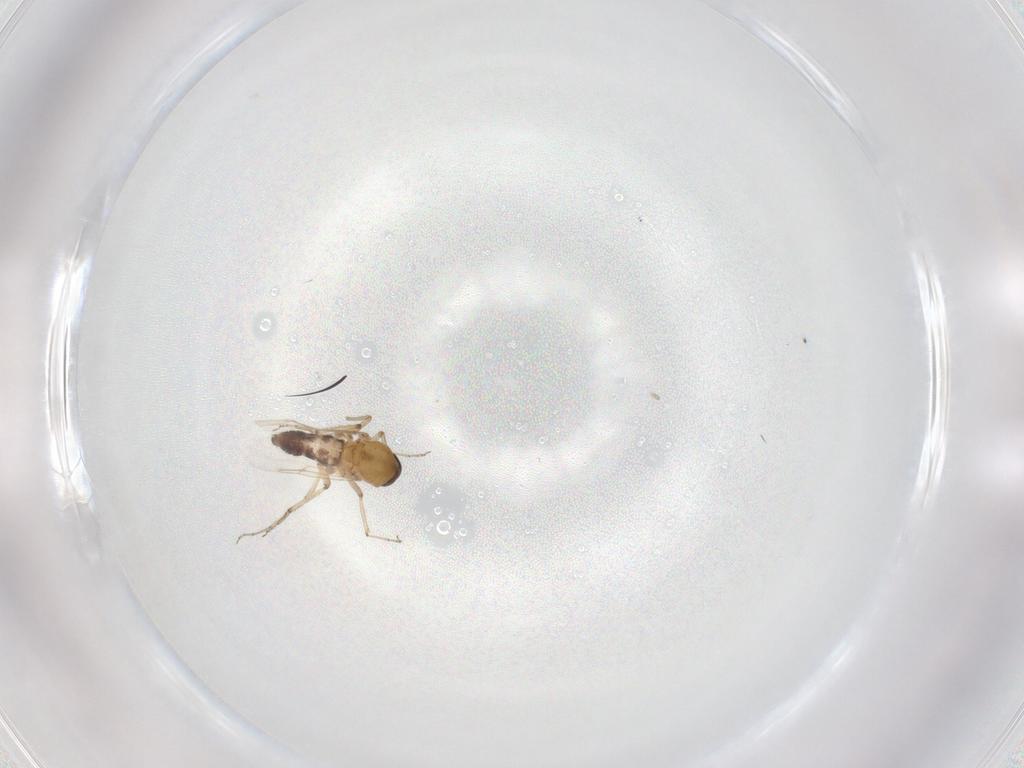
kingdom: Animalia
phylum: Arthropoda
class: Insecta
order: Diptera
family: Ceratopogonidae
